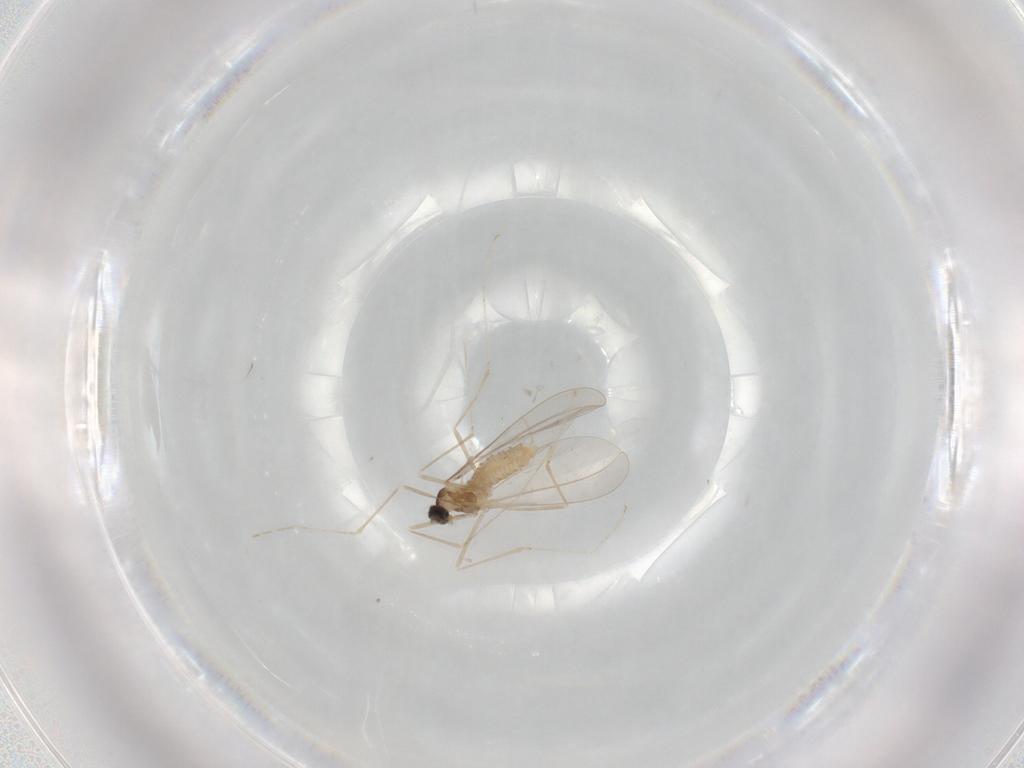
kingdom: Animalia
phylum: Arthropoda
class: Insecta
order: Diptera
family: Cecidomyiidae
